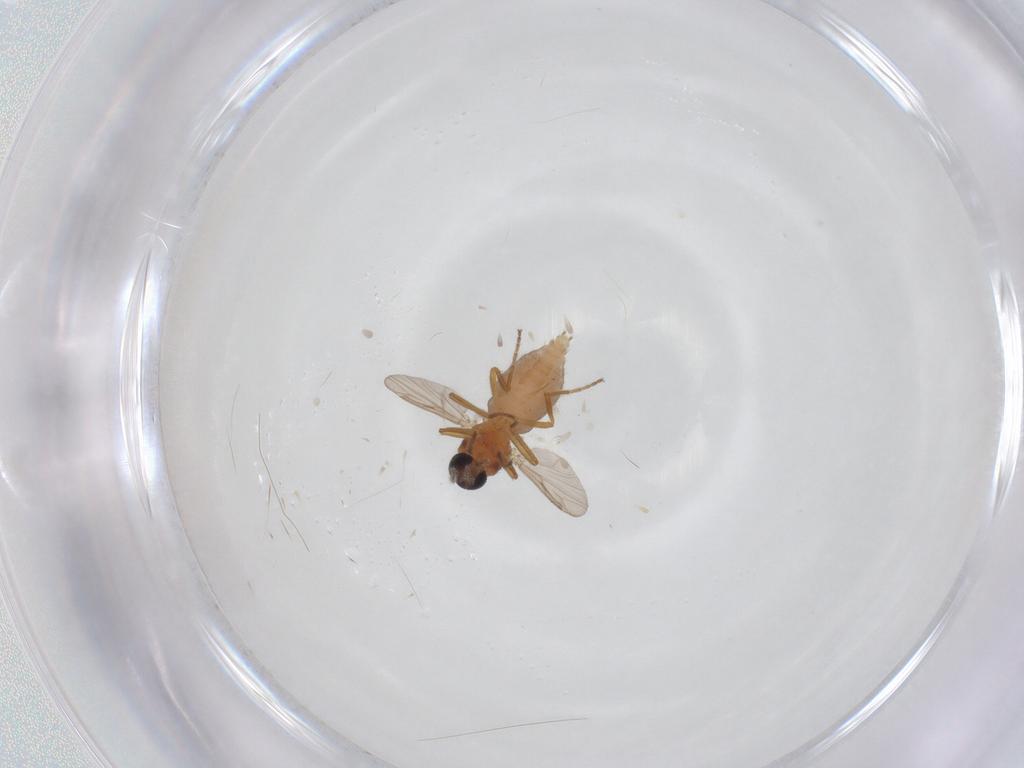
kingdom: Animalia
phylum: Arthropoda
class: Insecta
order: Diptera
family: Ceratopogonidae
